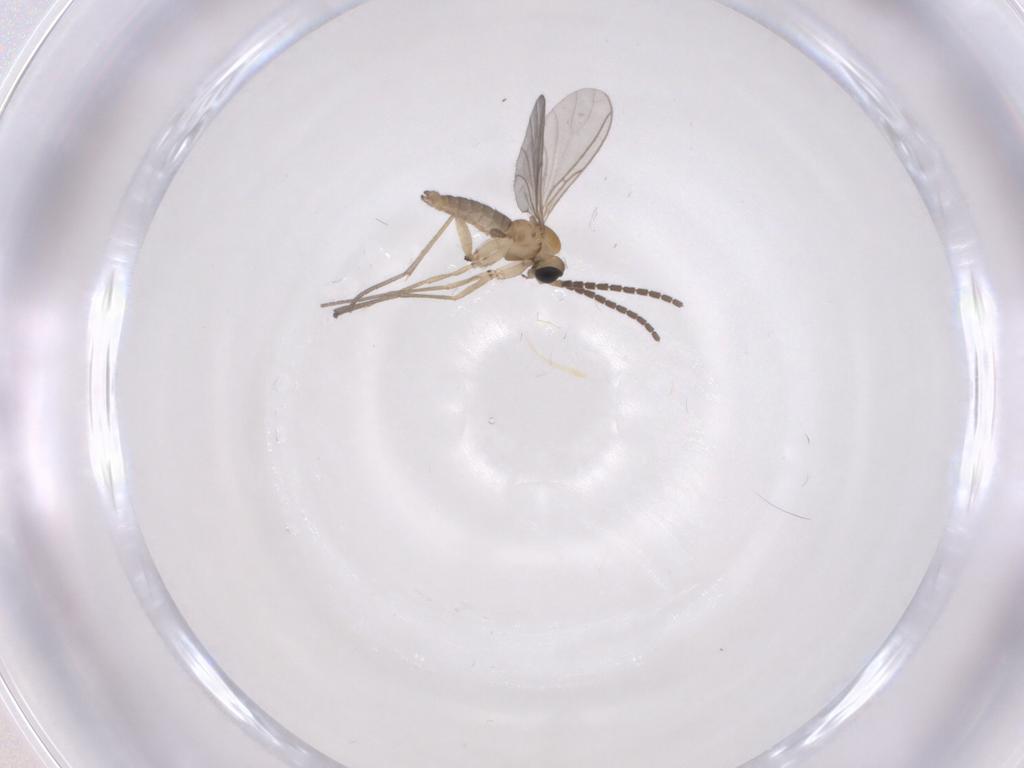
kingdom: Animalia
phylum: Arthropoda
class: Insecta
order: Diptera
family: Sciaridae
